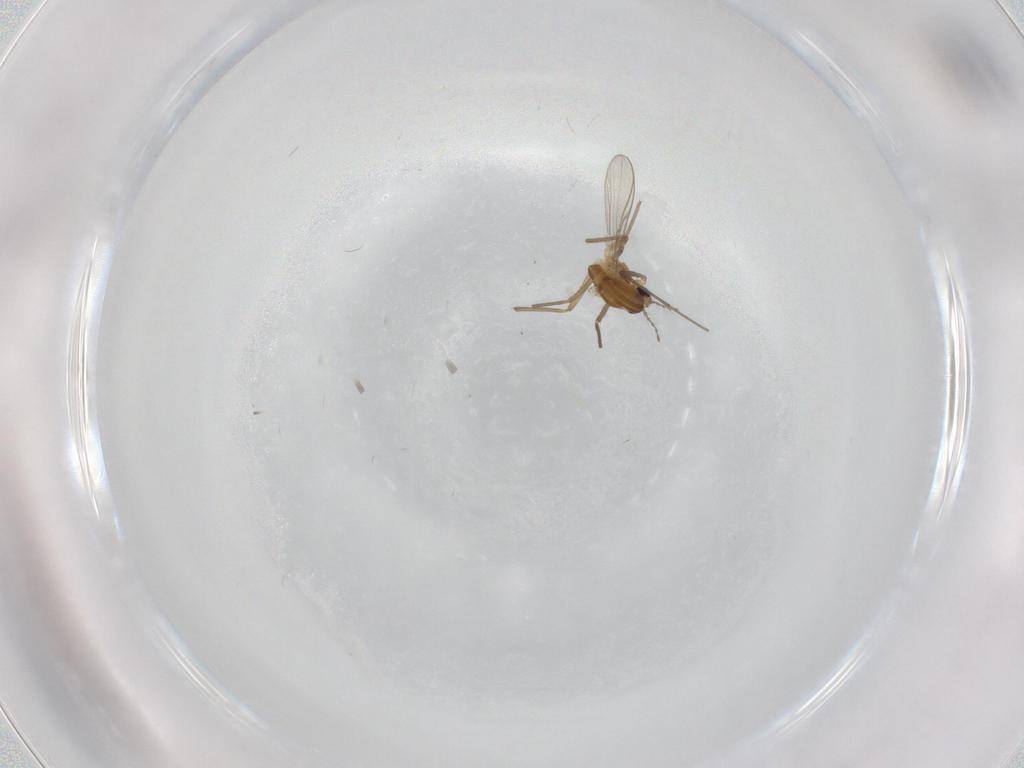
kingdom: Animalia
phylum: Arthropoda
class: Insecta
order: Diptera
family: Chironomidae
